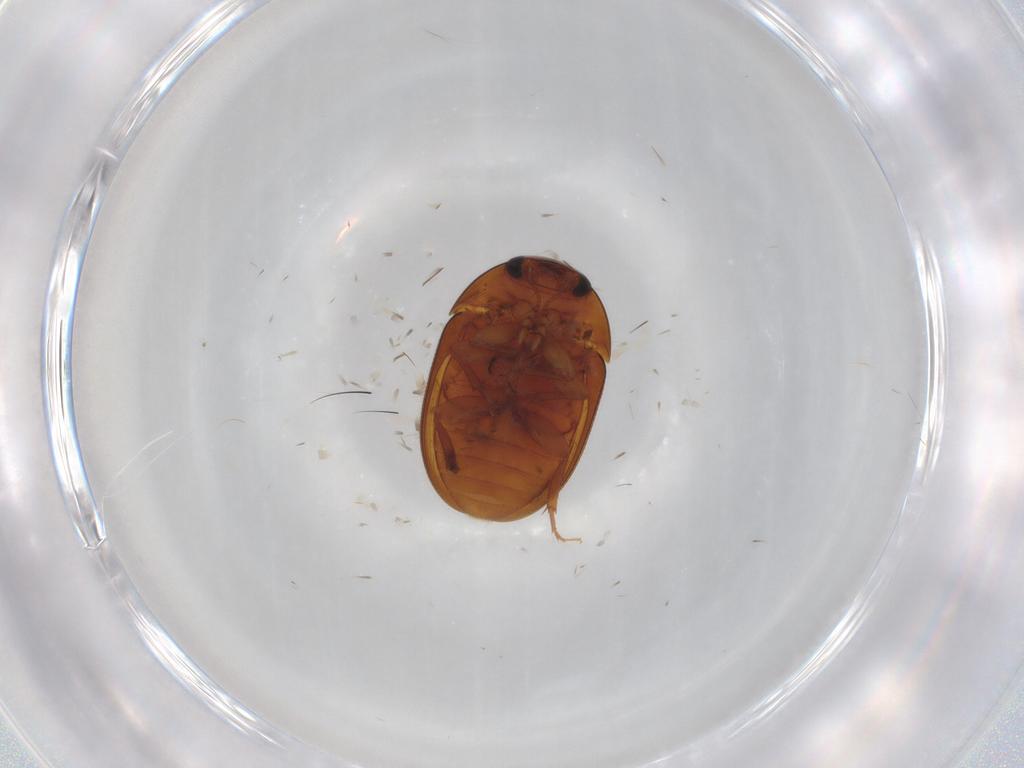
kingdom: Animalia
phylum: Arthropoda
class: Insecta
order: Coleoptera
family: Phalacridae
